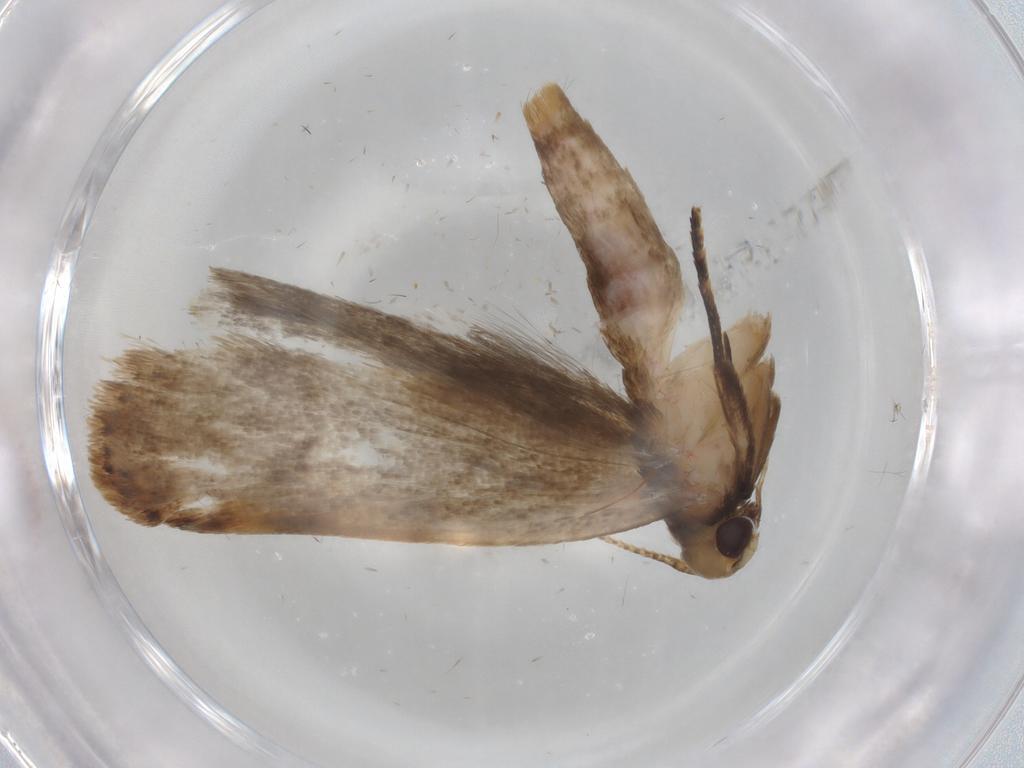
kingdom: Animalia
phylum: Arthropoda
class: Insecta
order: Lepidoptera
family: Gelechiidae
